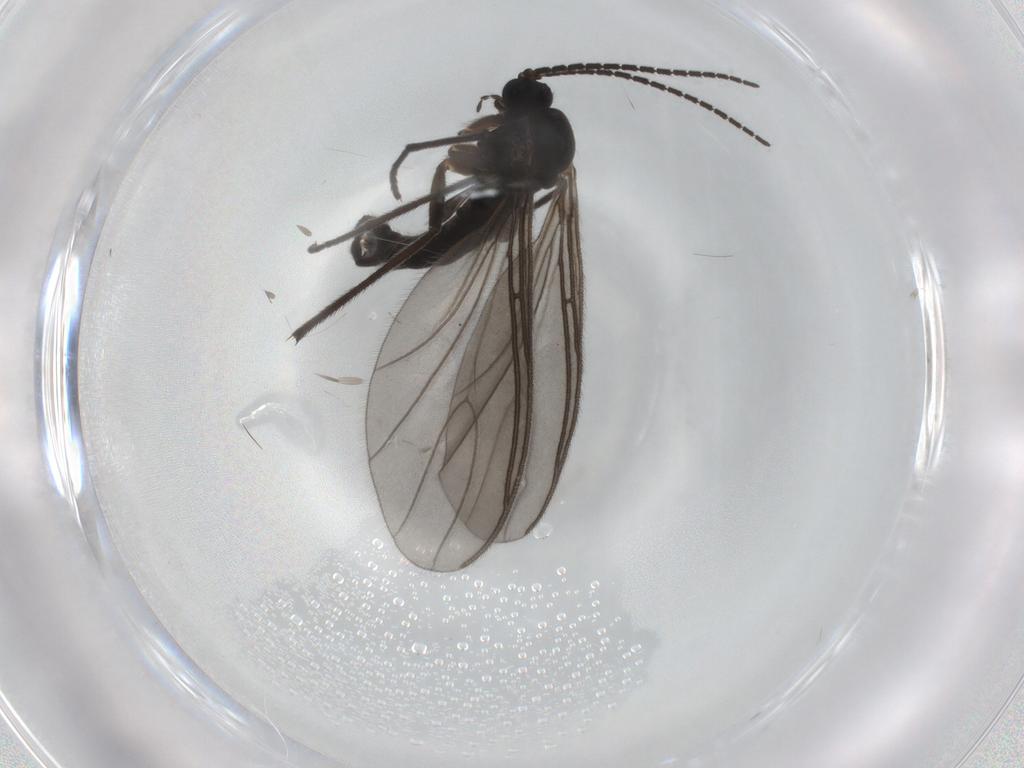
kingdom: Animalia
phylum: Arthropoda
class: Insecta
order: Diptera
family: Sciaridae
